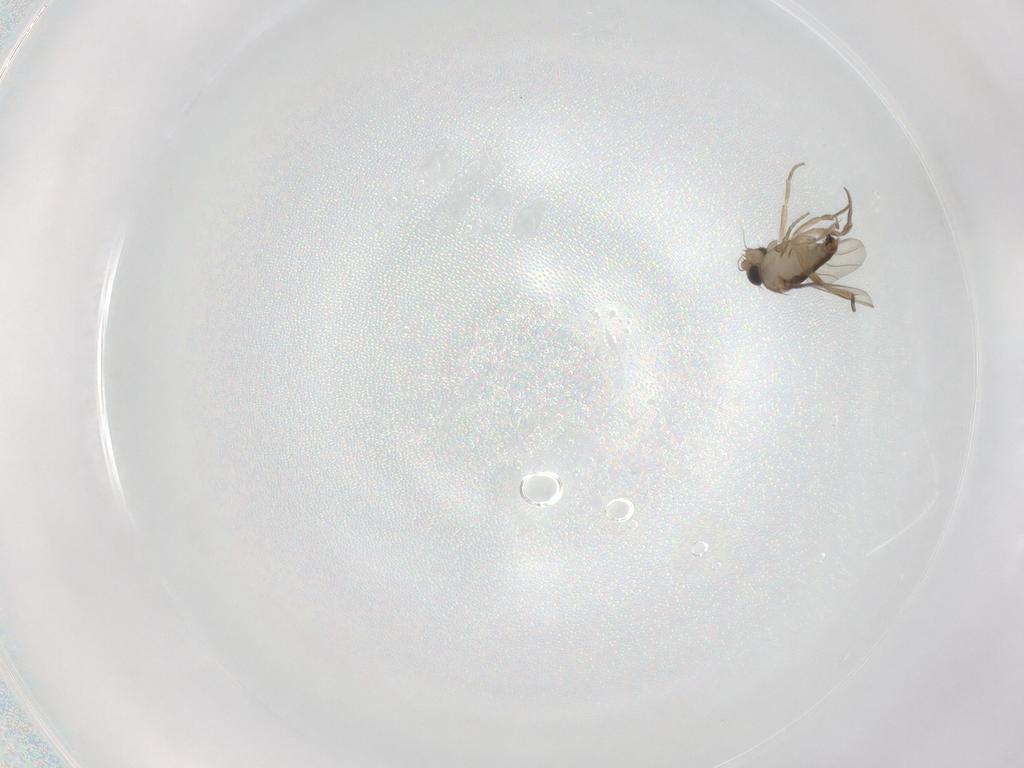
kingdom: Animalia
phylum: Arthropoda
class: Insecta
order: Diptera
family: Phoridae
